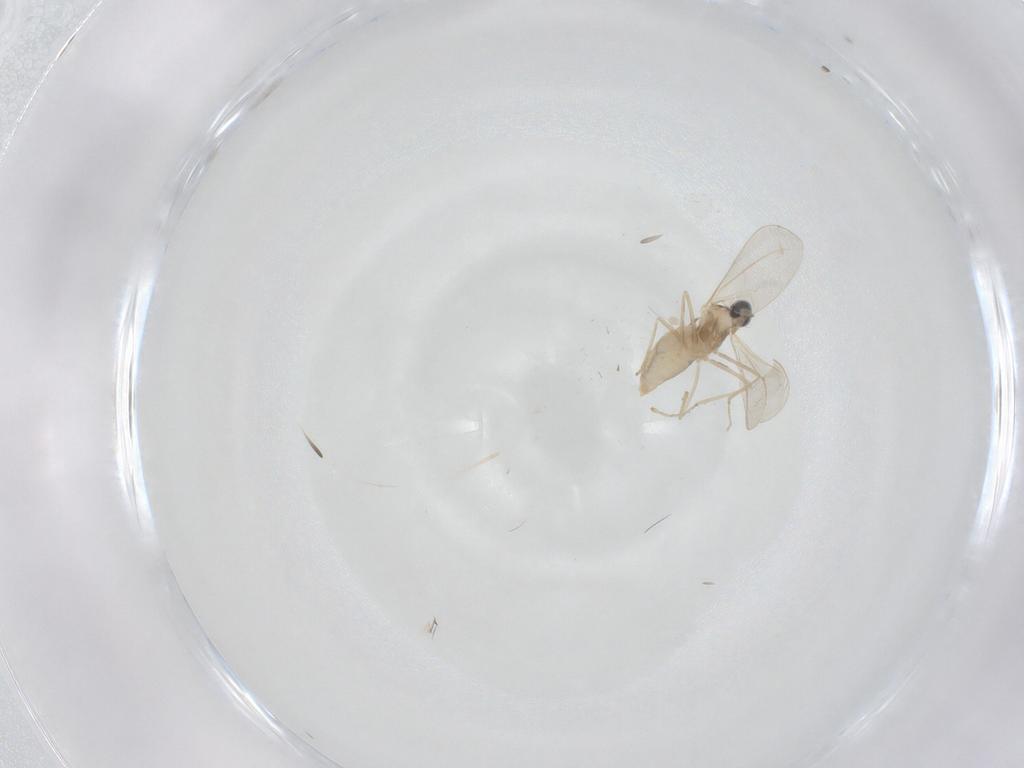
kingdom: Animalia
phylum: Arthropoda
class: Insecta
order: Diptera
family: Cecidomyiidae
